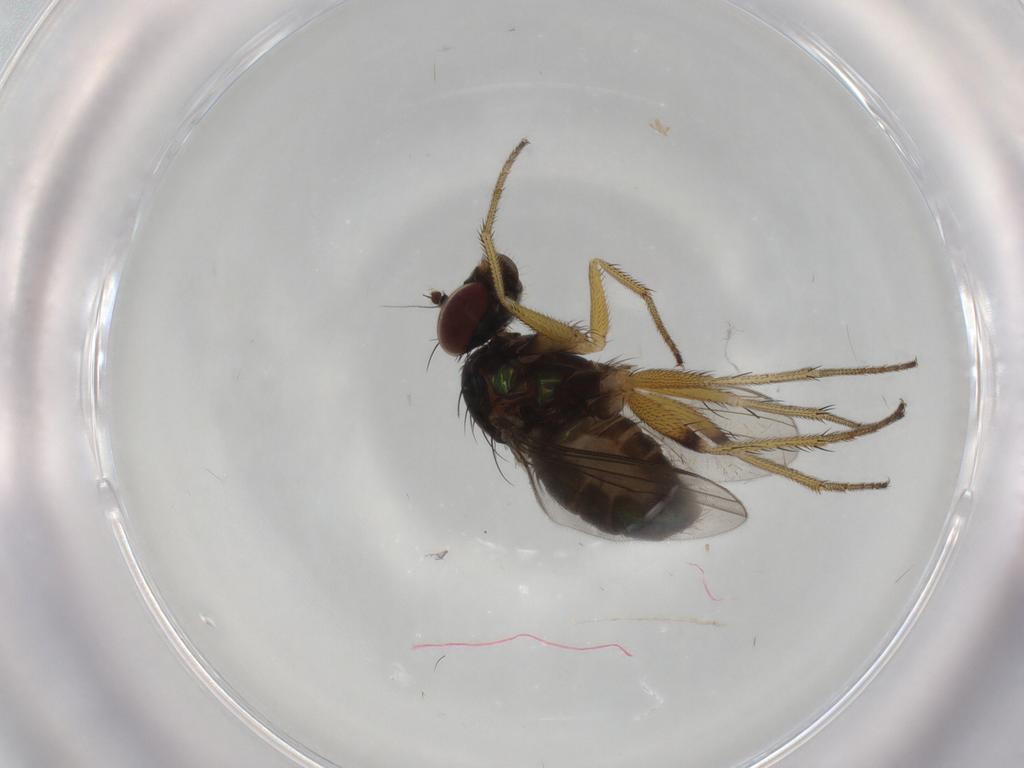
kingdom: Animalia
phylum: Arthropoda
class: Insecta
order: Diptera
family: Dolichopodidae
